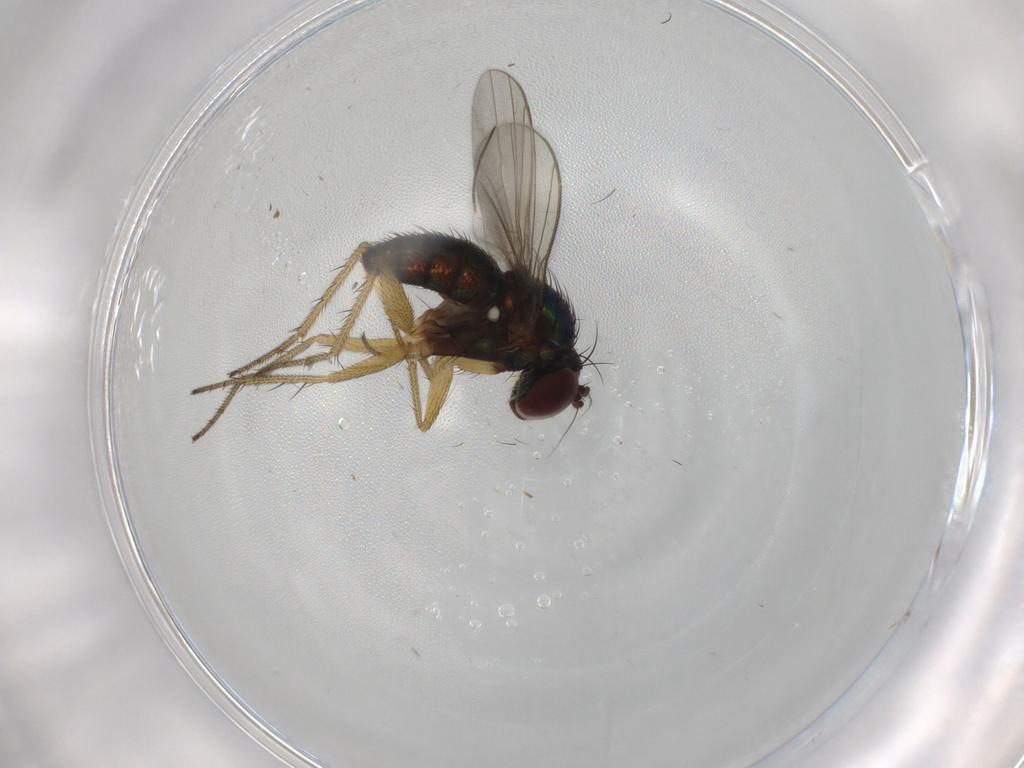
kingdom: Animalia
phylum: Arthropoda
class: Insecta
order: Diptera
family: Dolichopodidae
